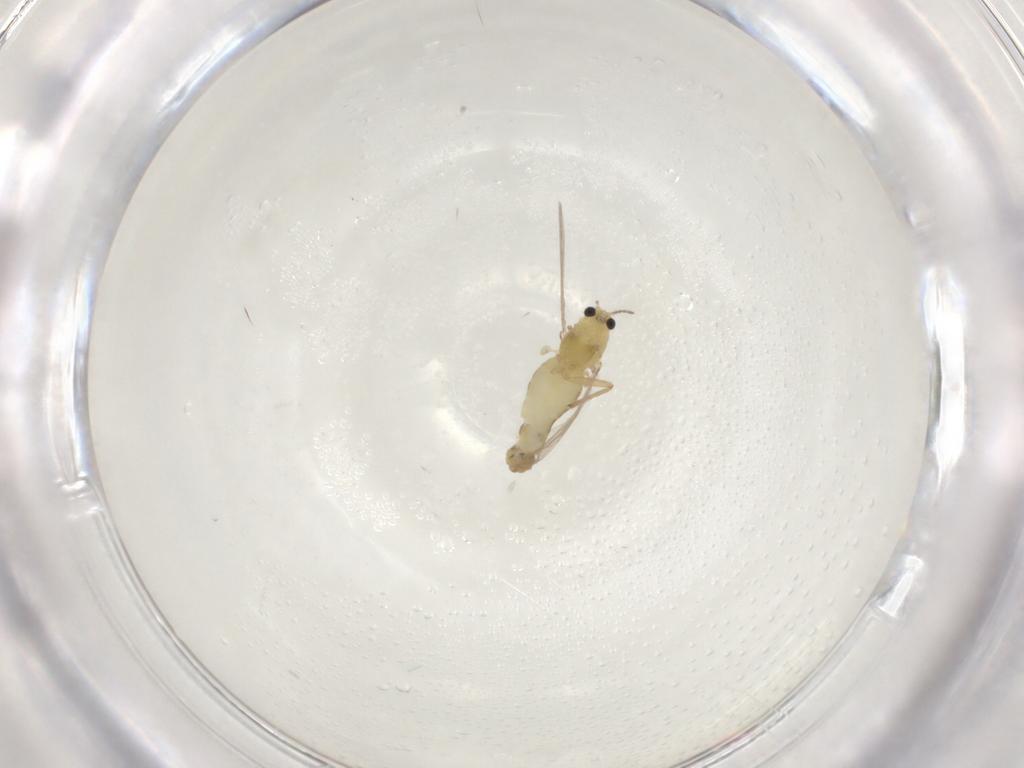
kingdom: Animalia
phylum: Arthropoda
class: Insecta
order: Diptera
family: Chironomidae
